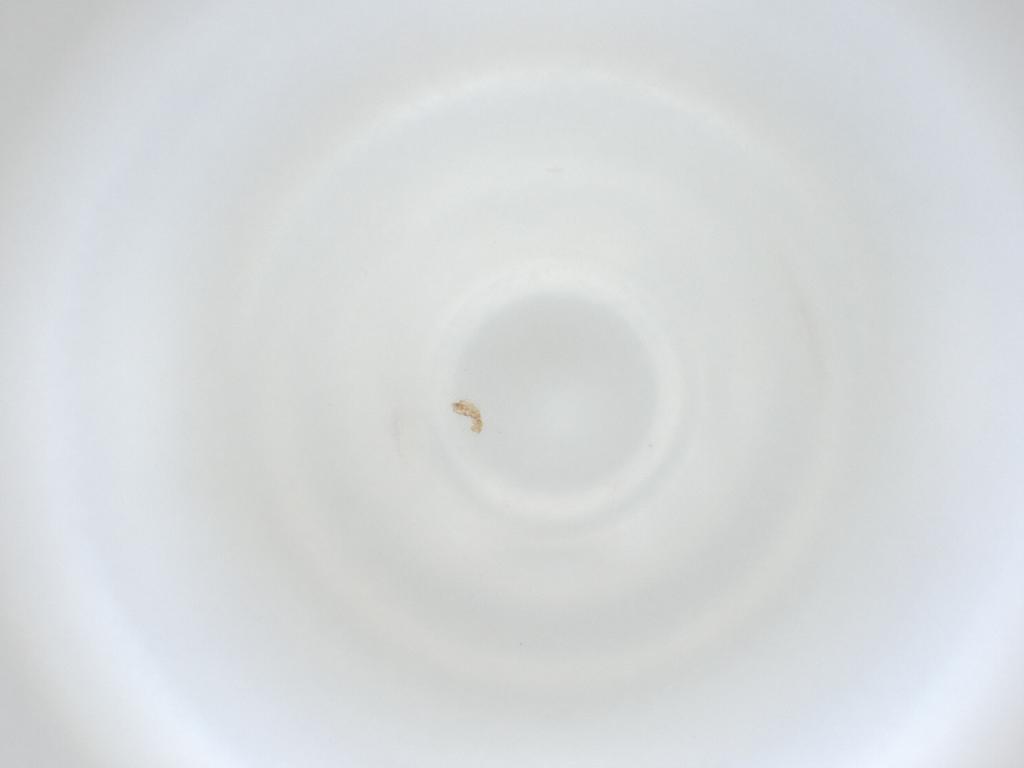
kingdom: Animalia
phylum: Arthropoda
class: Insecta
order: Diptera
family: Cecidomyiidae
